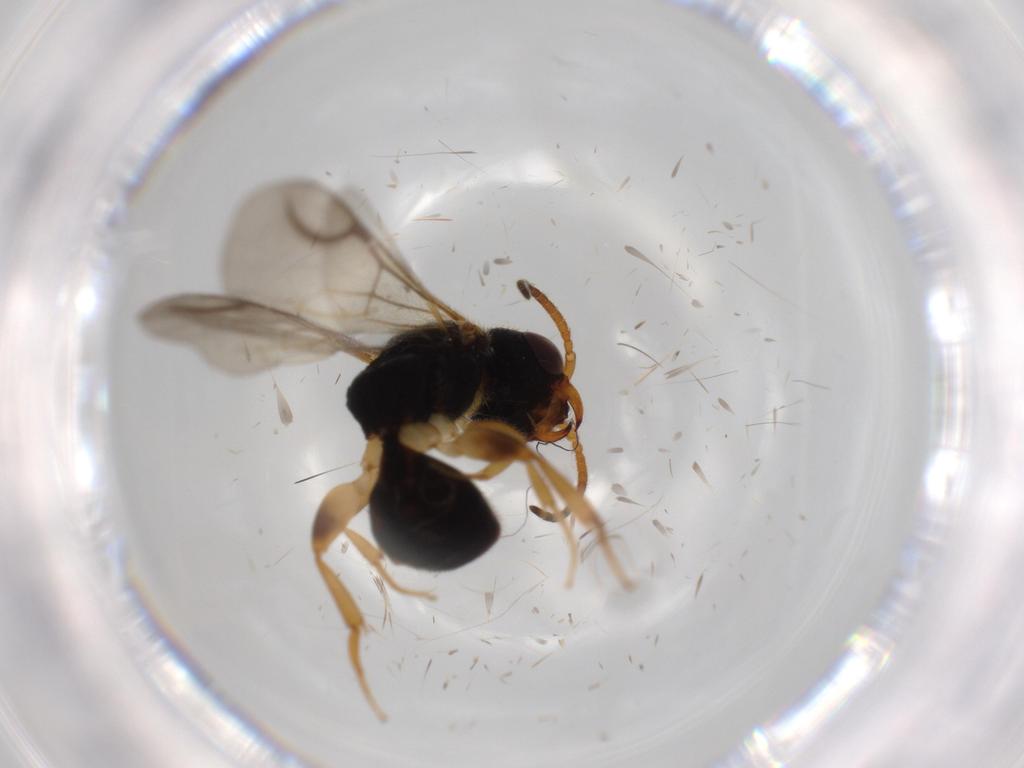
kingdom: Animalia
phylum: Arthropoda
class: Insecta
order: Hymenoptera
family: Bethylidae
